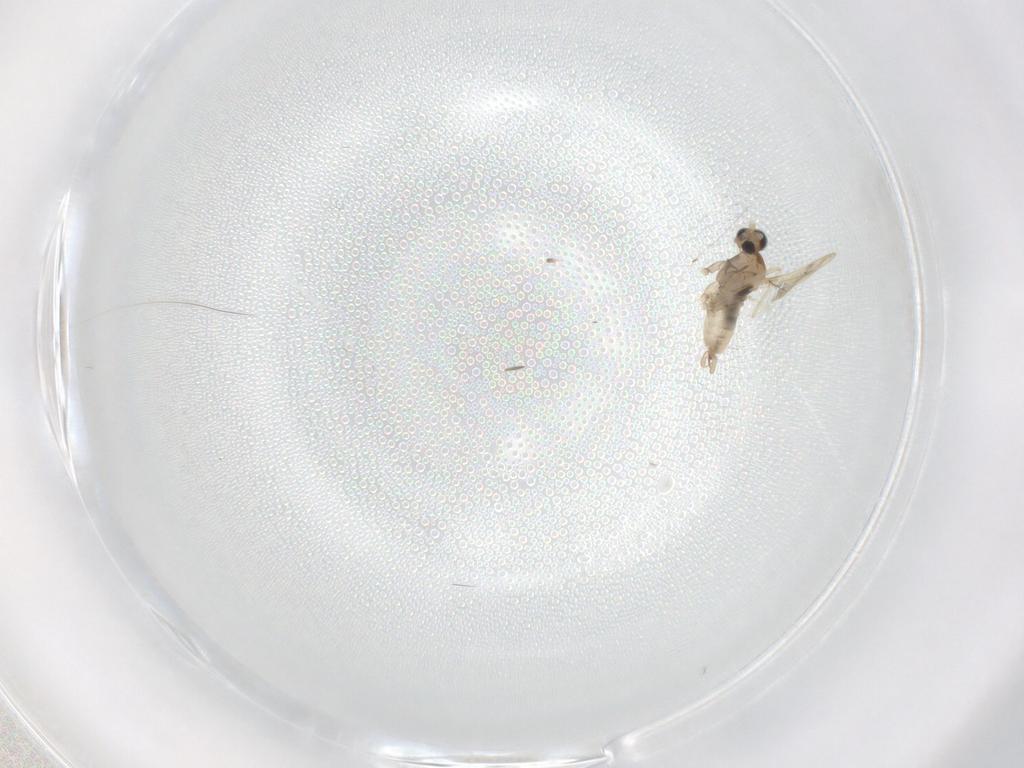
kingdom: Animalia
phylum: Arthropoda
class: Insecta
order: Diptera
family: Cecidomyiidae
